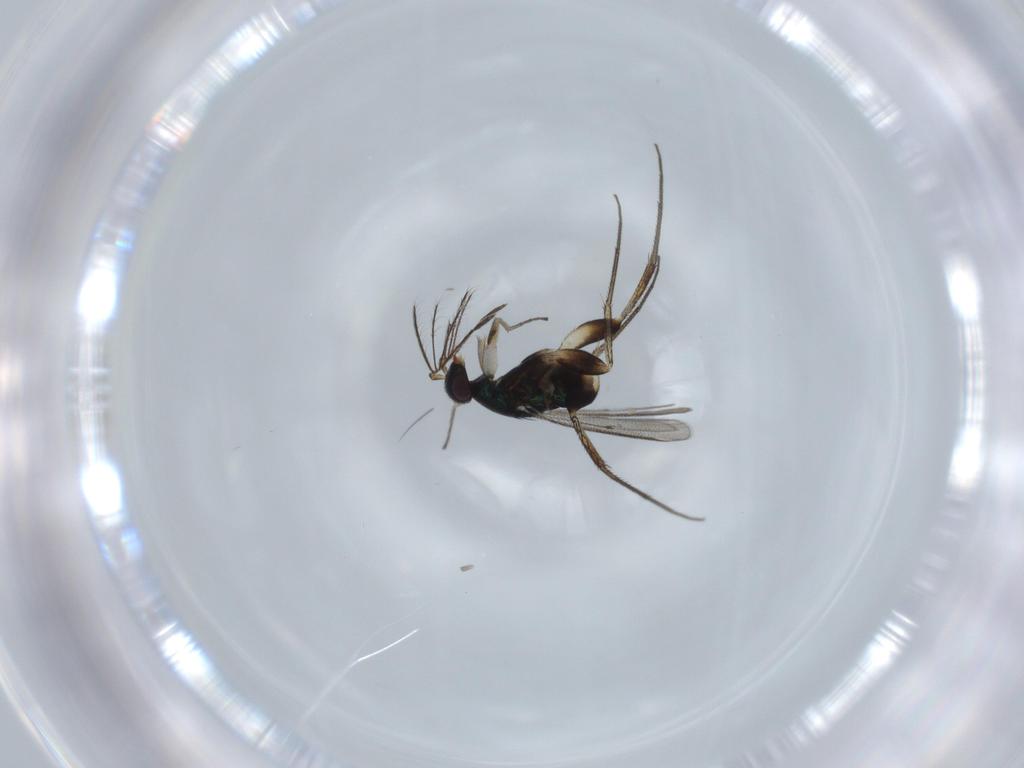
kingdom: Animalia
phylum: Arthropoda
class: Insecta
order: Hymenoptera
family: Eulophidae
